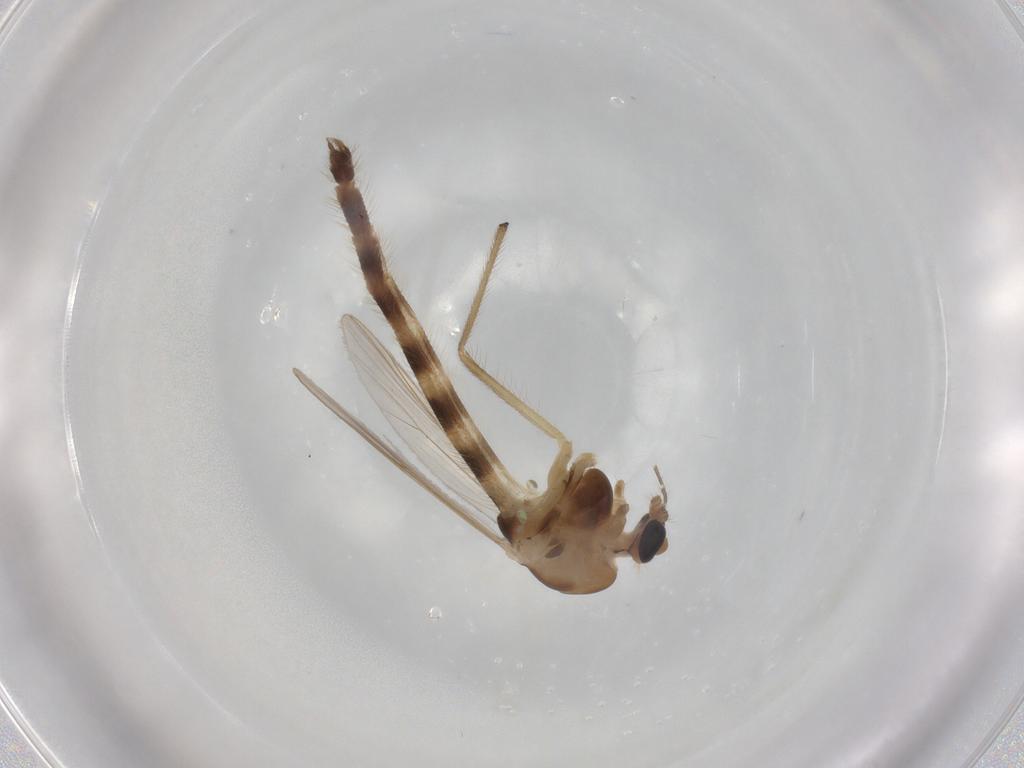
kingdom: Animalia
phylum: Arthropoda
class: Insecta
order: Diptera
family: Chironomidae
